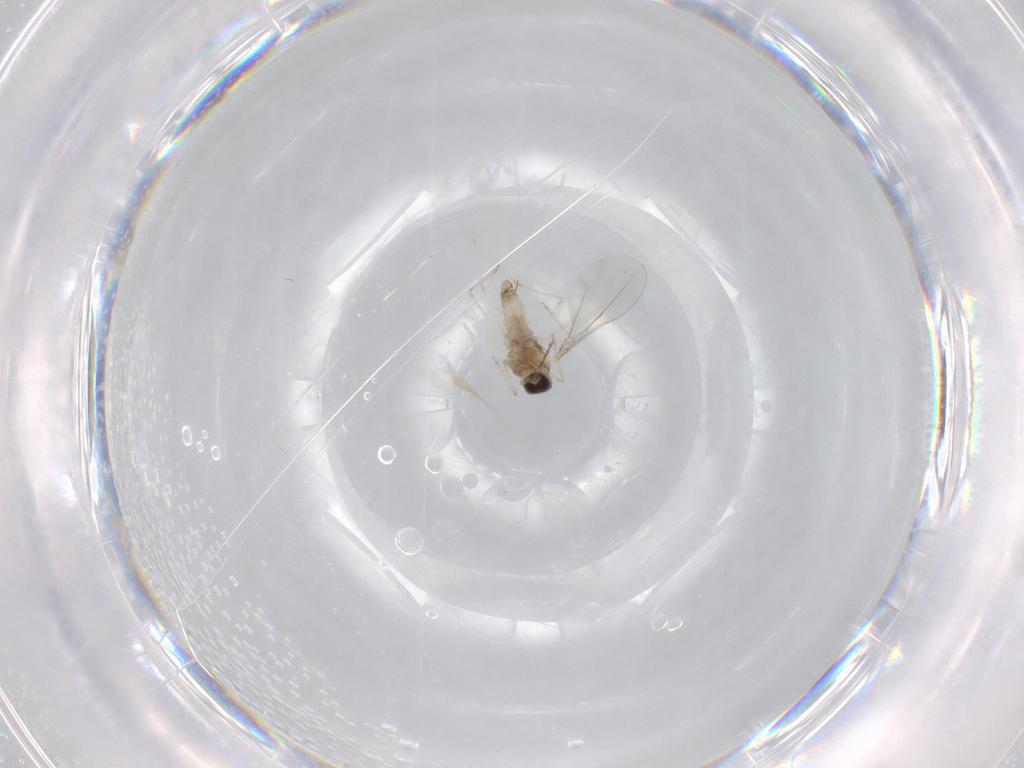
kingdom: Animalia
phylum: Arthropoda
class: Insecta
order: Diptera
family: Cecidomyiidae
